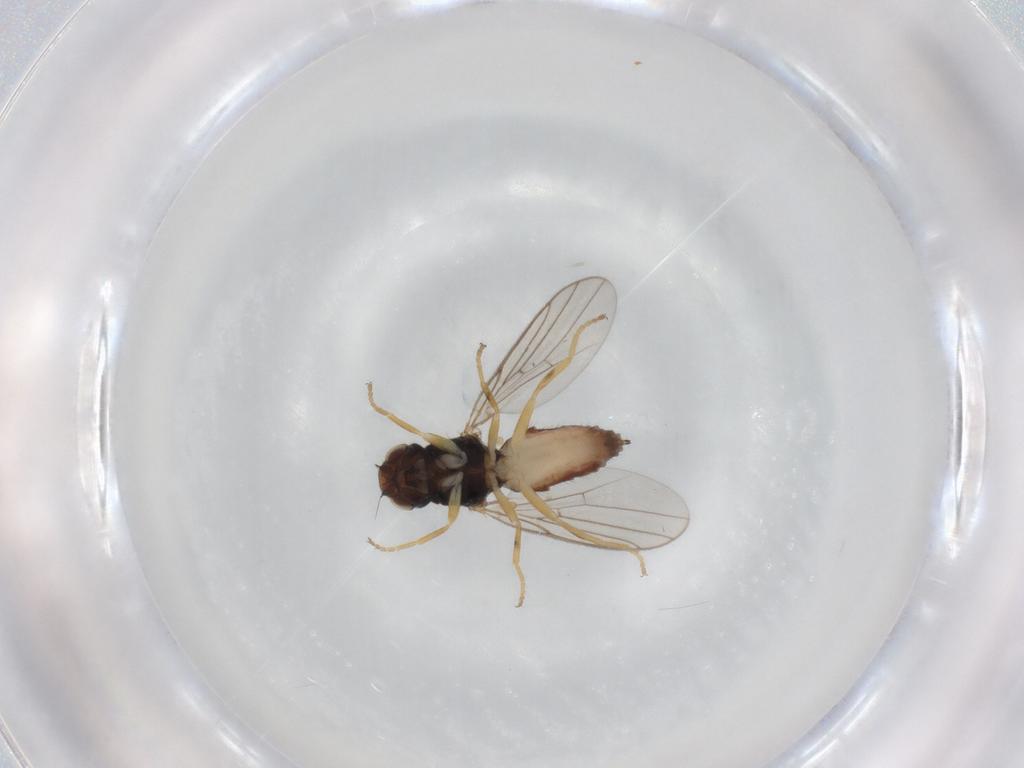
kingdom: Animalia
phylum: Arthropoda
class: Insecta
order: Diptera
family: Chloropidae
